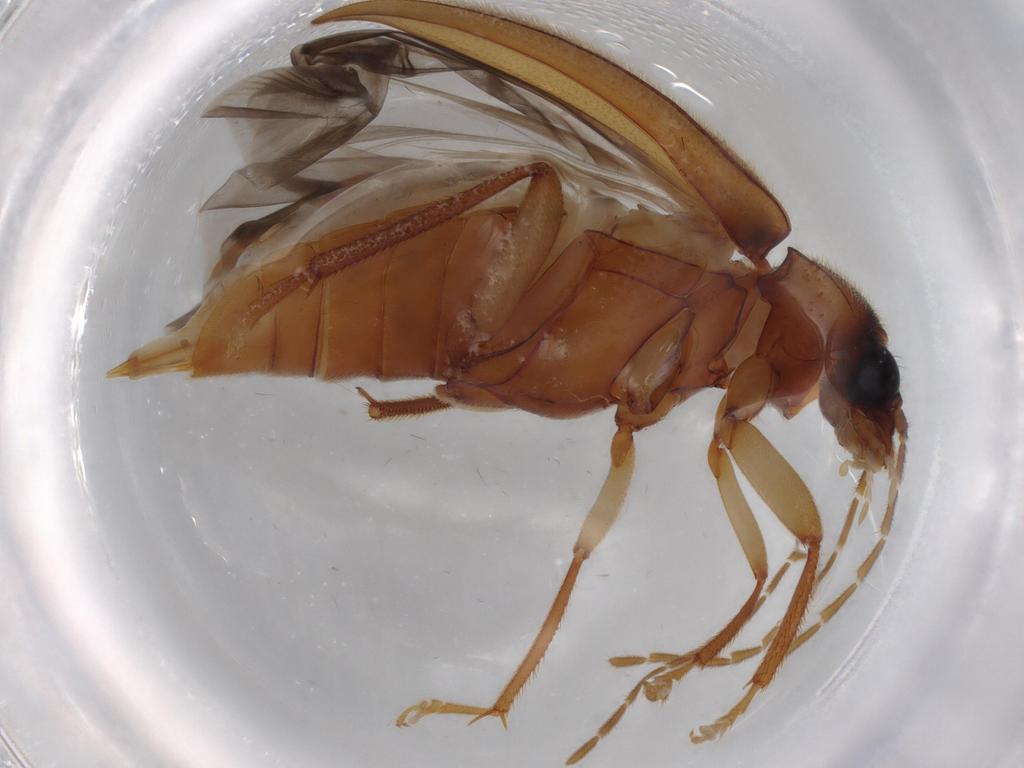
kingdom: Animalia
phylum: Arthropoda
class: Insecta
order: Coleoptera
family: Ptilodactylidae
